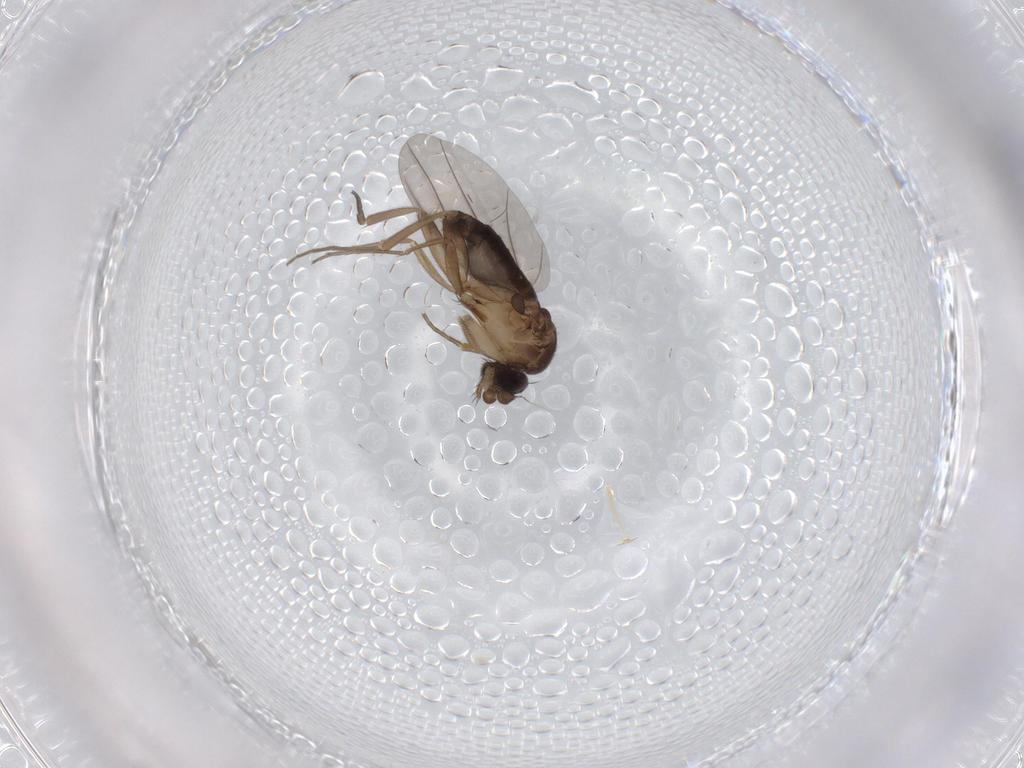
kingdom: Animalia
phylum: Arthropoda
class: Insecta
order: Diptera
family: Phoridae
